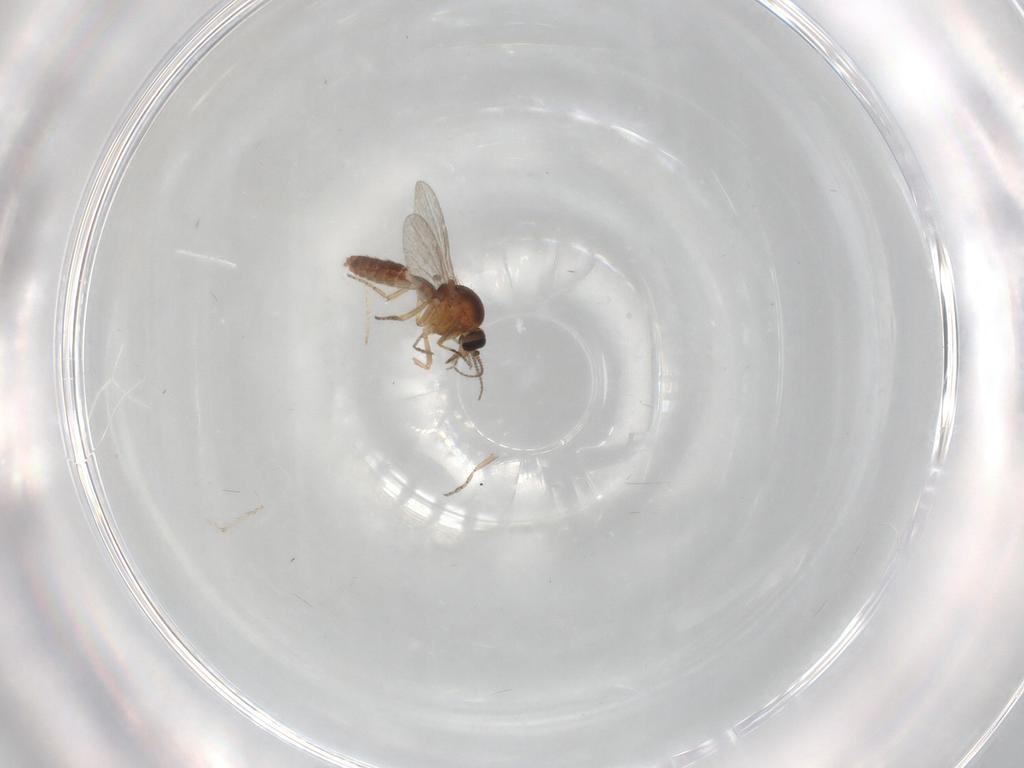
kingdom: Animalia
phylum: Arthropoda
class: Insecta
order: Diptera
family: Ceratopogonidae
